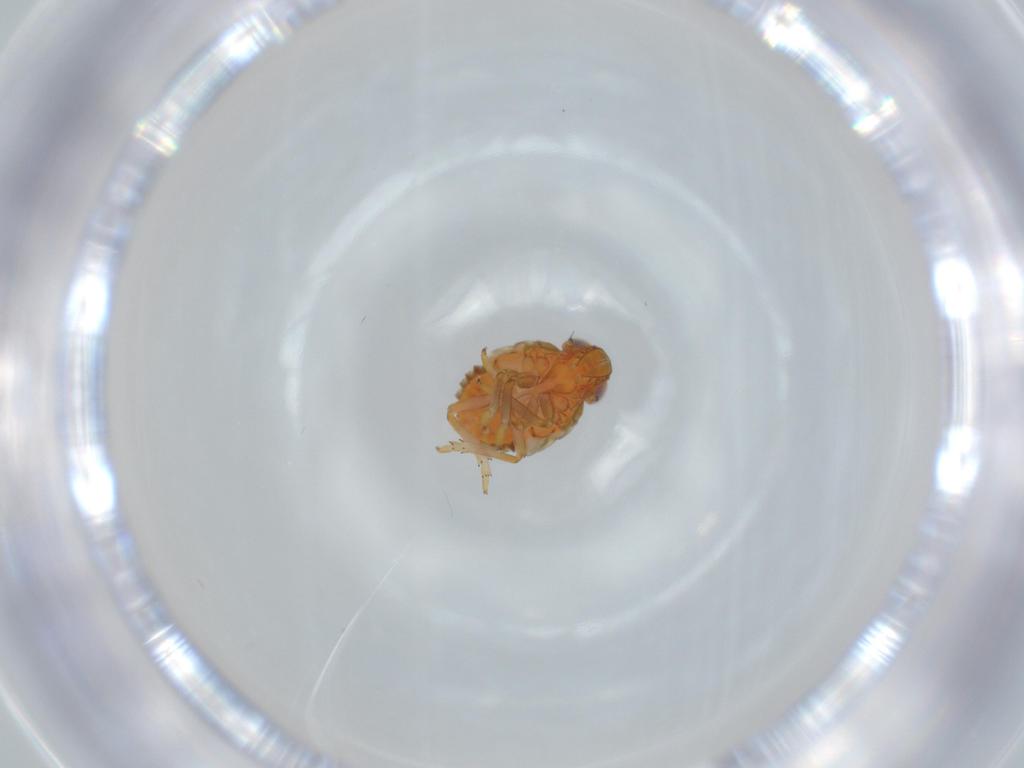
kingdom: Animalia
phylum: Arthropoda
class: Insecta
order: Hemiptera
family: Issidae
